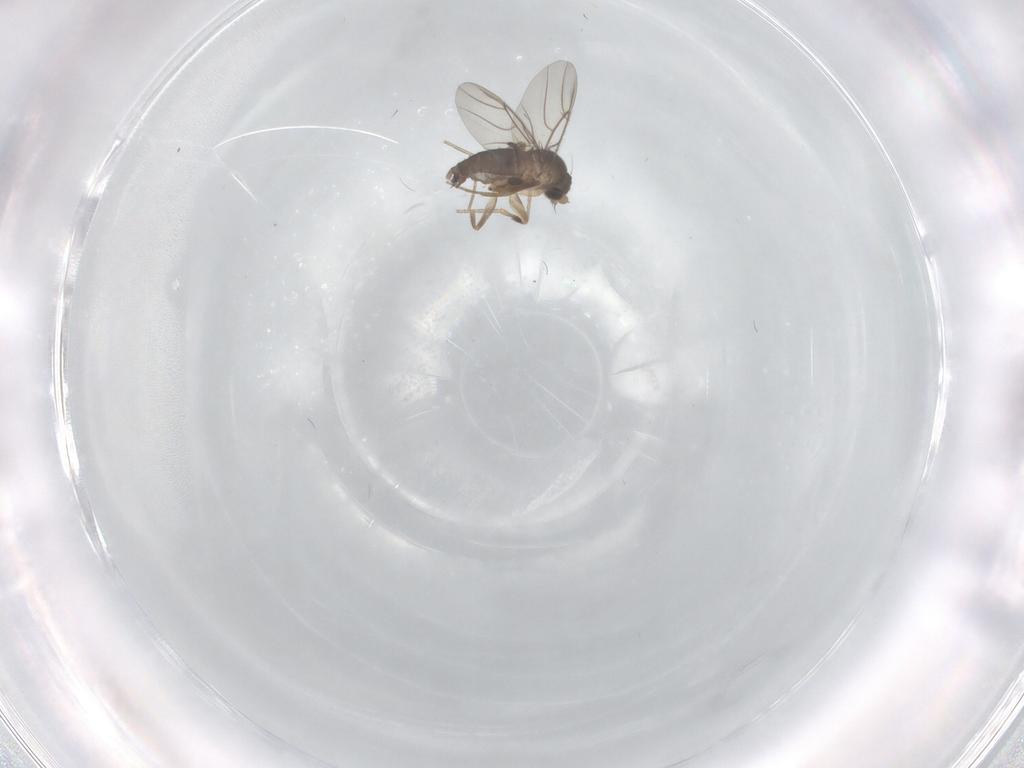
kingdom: Animalia
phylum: Arthropoda
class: Insecta
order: Diptera
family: Phoridae
